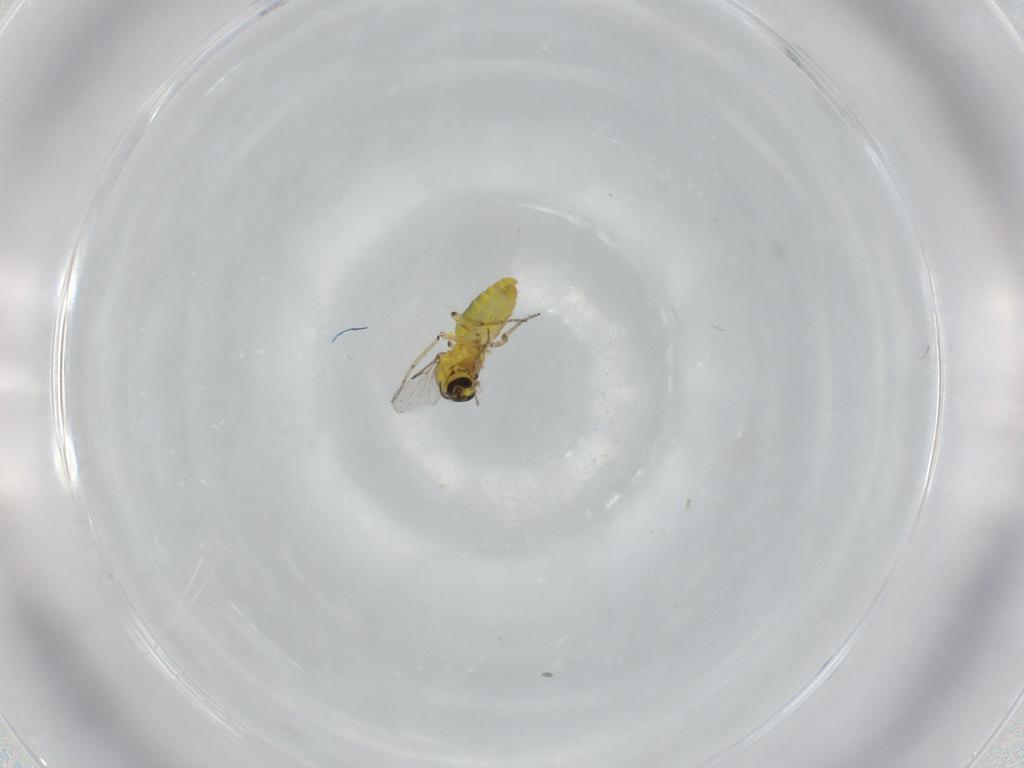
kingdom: Animalia
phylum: Arthropoda
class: Insecta
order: Diptera
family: Ceratopogonidae
